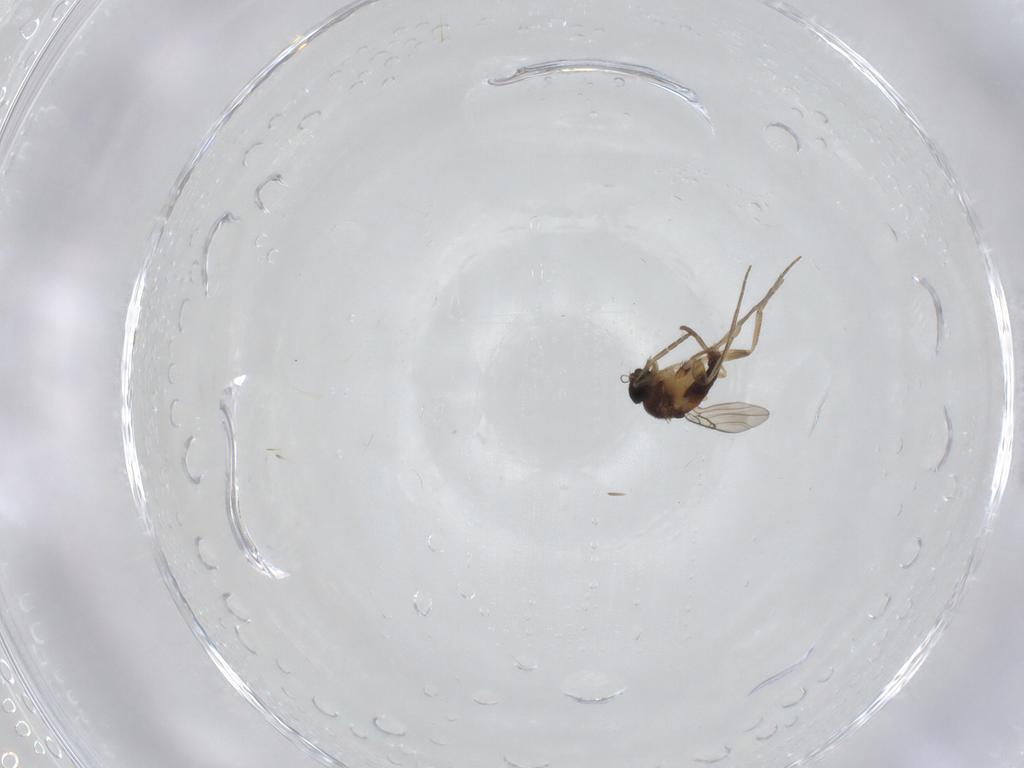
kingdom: Animalia
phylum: Arthropoda
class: Insecta
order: Diptera
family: Phoridae
